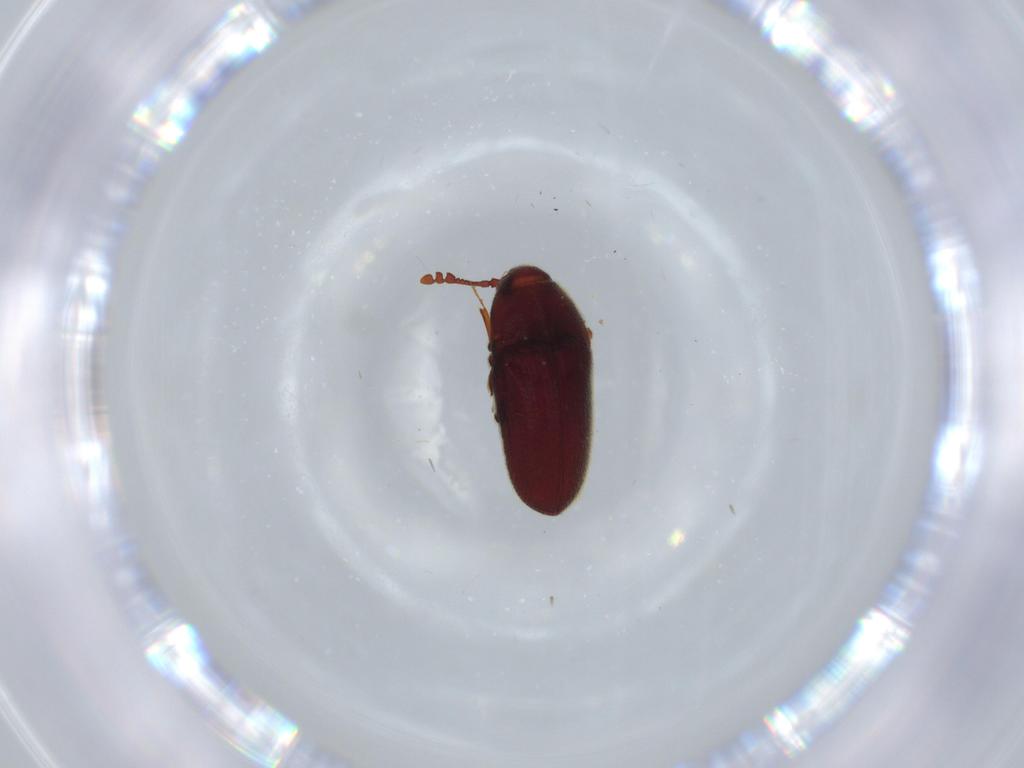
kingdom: Animalia
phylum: Arthropoda
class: Insecta
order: Coleoptera
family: Throscidae
